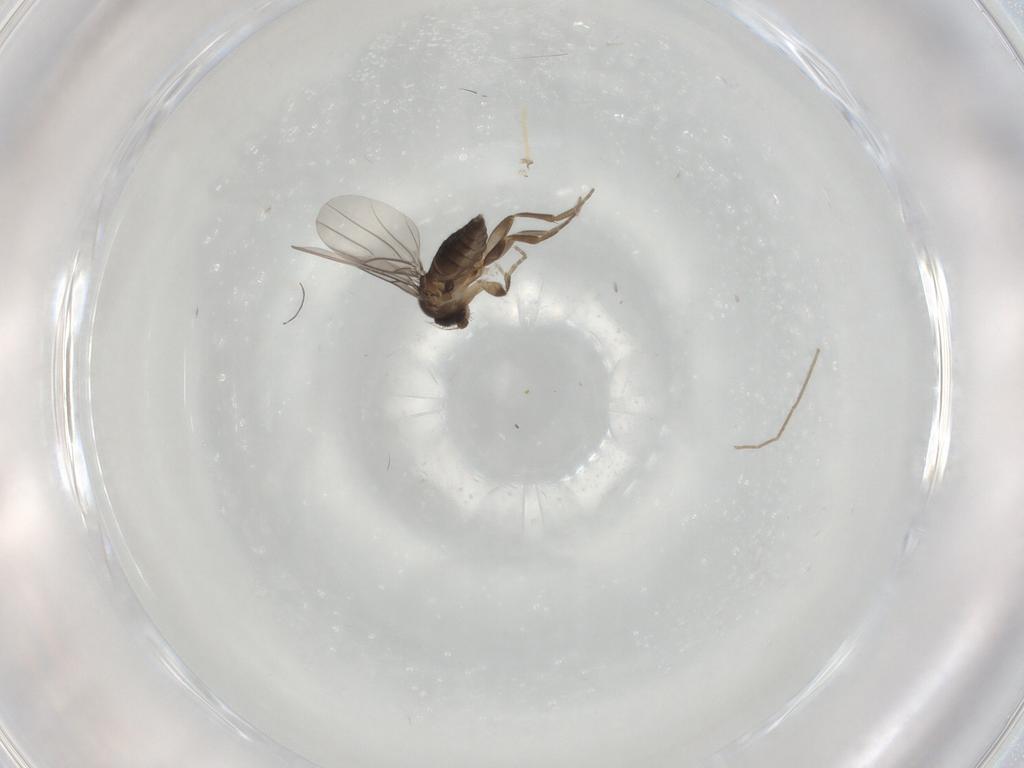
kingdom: Animalia
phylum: Arthropoda
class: Insecta
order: Diptera
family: Chironomidae
